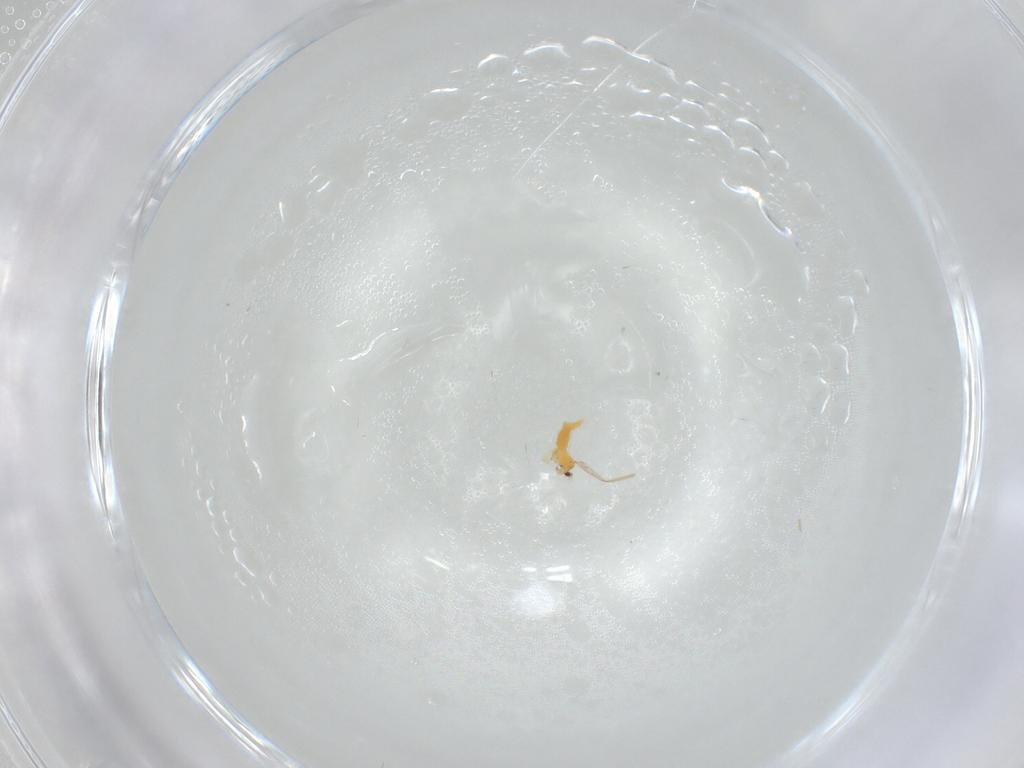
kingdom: Animalia
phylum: Arthropoda
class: Insecta
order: Thysanoptera
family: Thripidae
